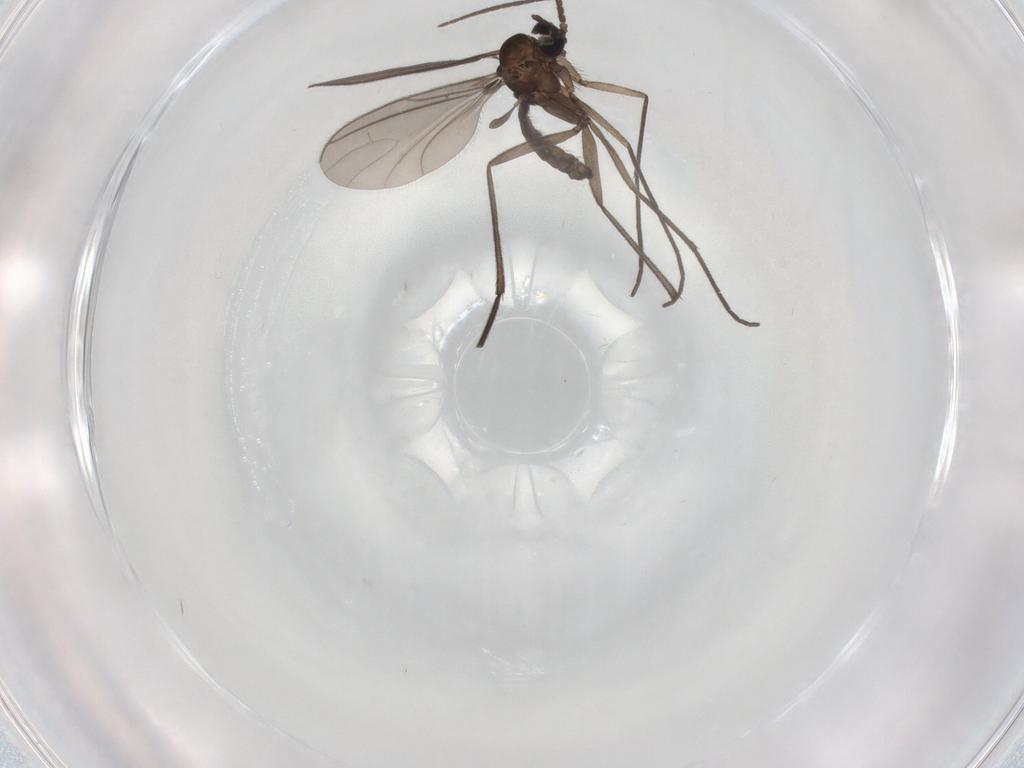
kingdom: Animalia
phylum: Arthropoda
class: Insecta
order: Diptera
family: Sciaridae
